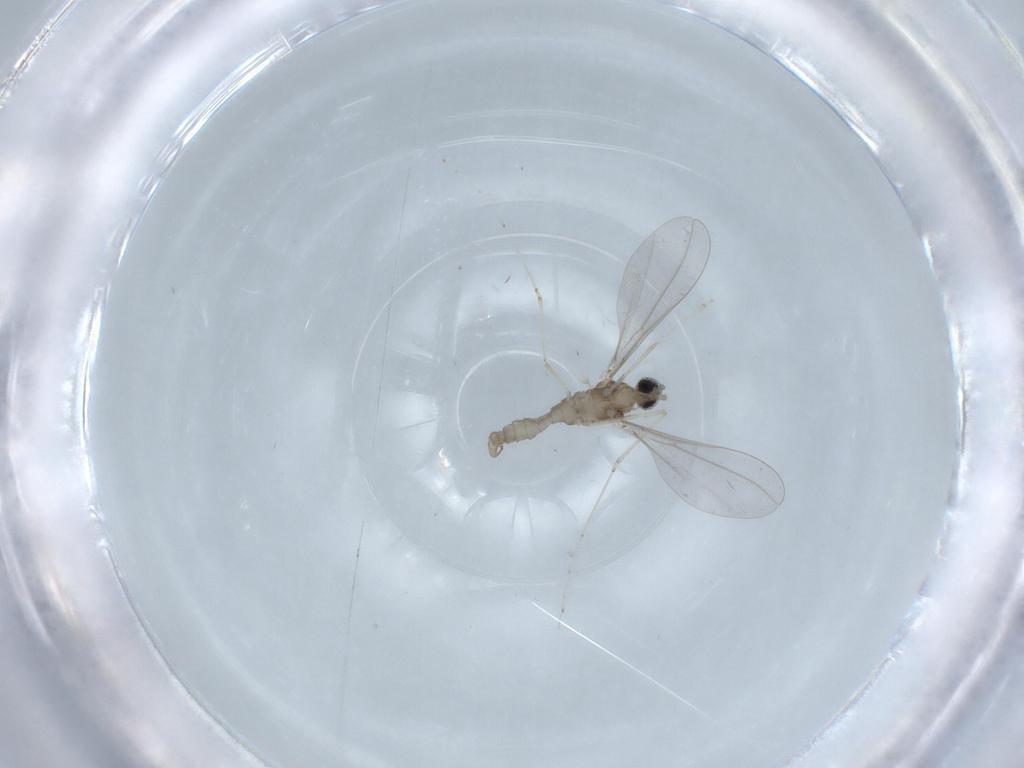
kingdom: Animalia
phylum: Arthropoda
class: Insecta
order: Diptera
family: Cecidomyiidae
